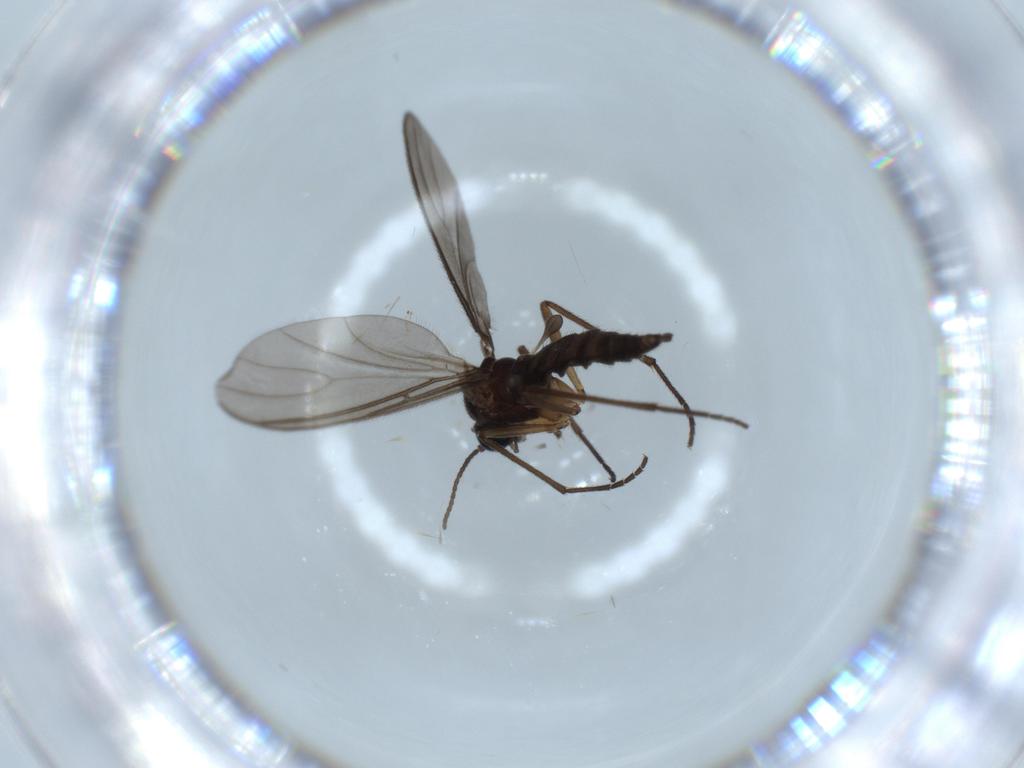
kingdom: Animalia
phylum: Arthropoda
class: Insecta
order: Diptera
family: Sciaridae
